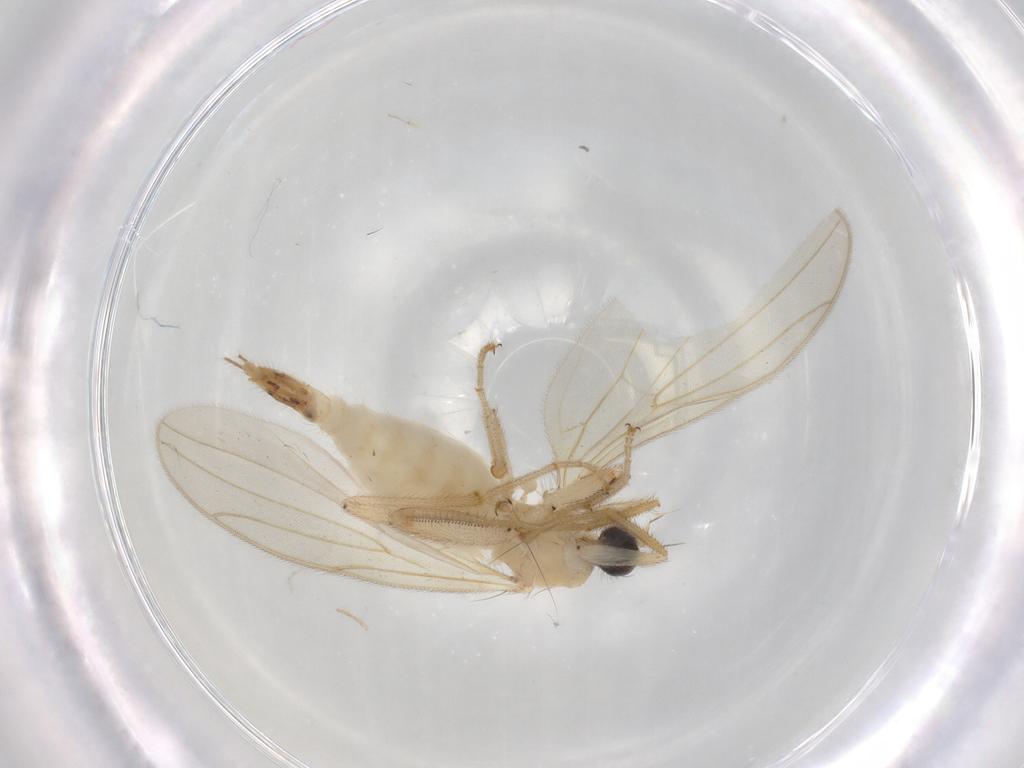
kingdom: Animalia
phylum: Arthropoda
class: Insecta
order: Diptera
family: Hybotidae
